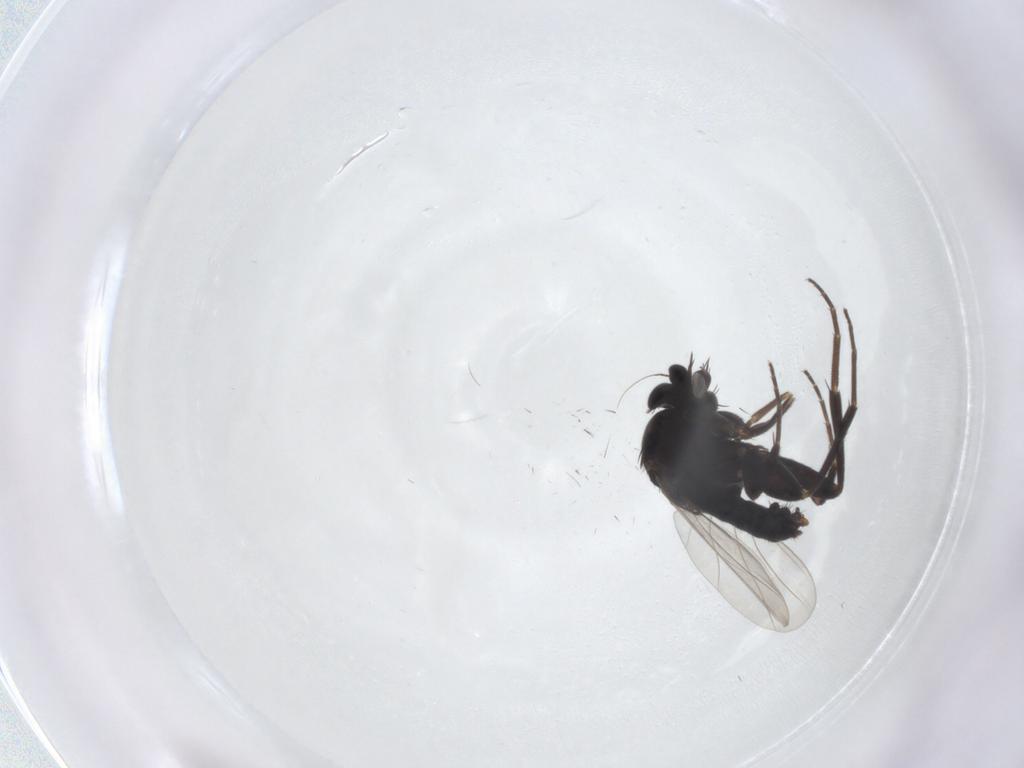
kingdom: Animalia
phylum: Arthropoda
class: Insecta
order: Diptera
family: Phoridae
